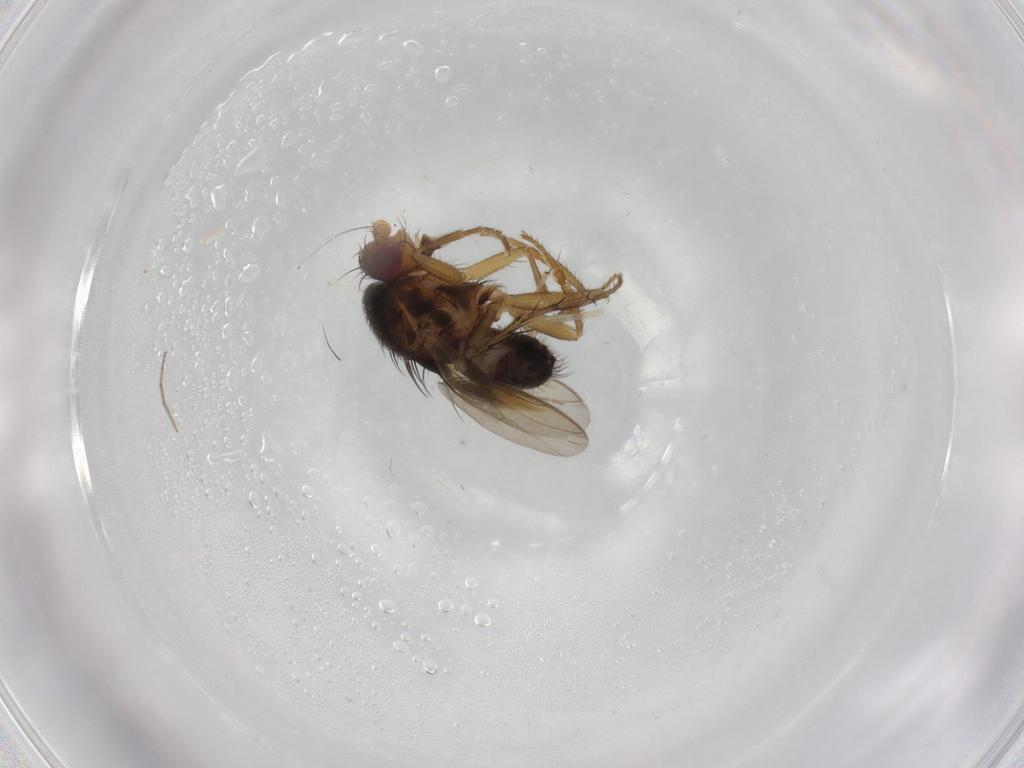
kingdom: Animalia
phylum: Arthropoda
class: Insecta
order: Diptera
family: Sphaeroceridae
